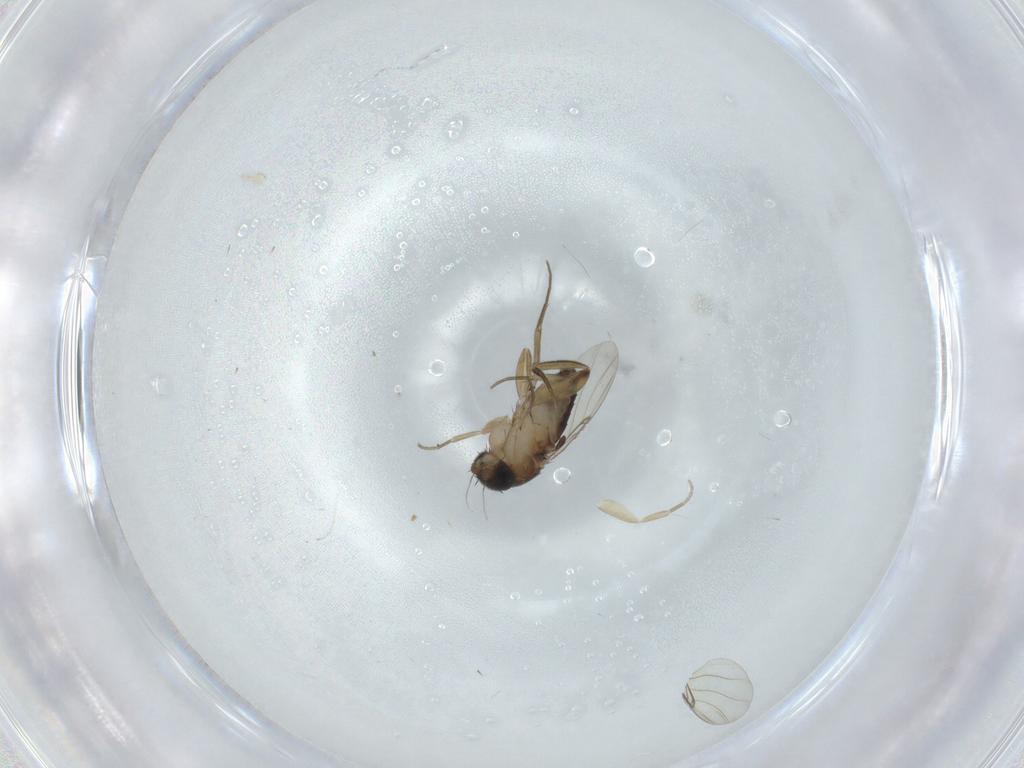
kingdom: Animalia
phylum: Arthropoda
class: Insecta
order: Diptera
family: Phoridae
